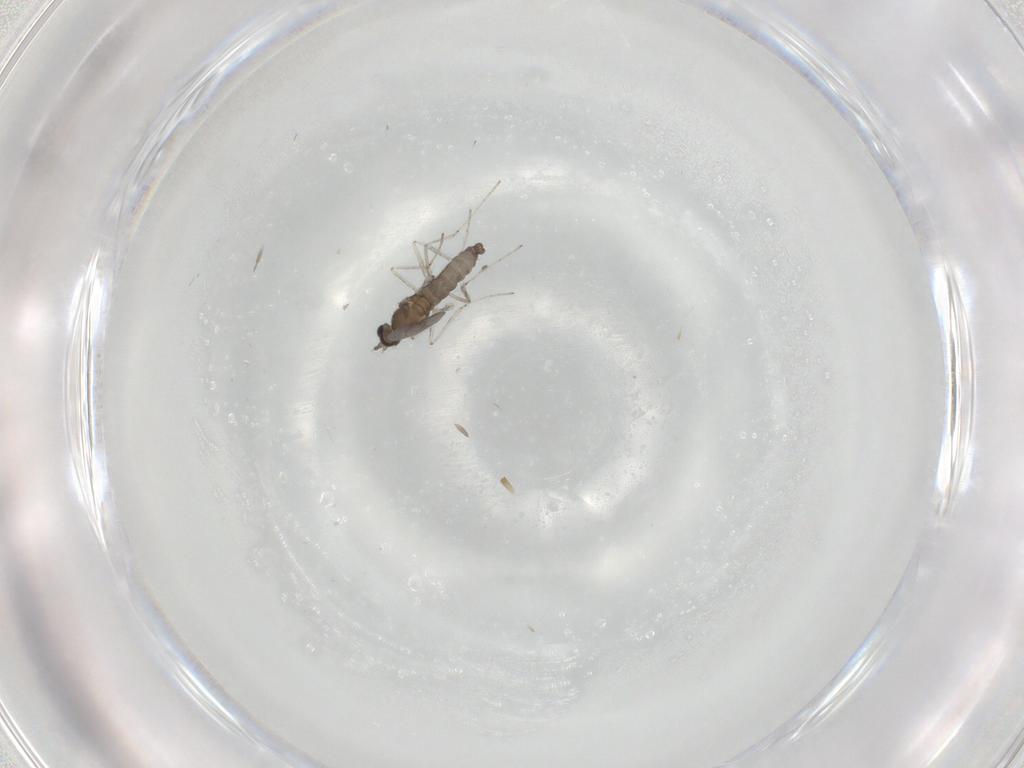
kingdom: Animalia
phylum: Arthropoda
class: Insecta
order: Diptera
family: Cecidomyiidae
